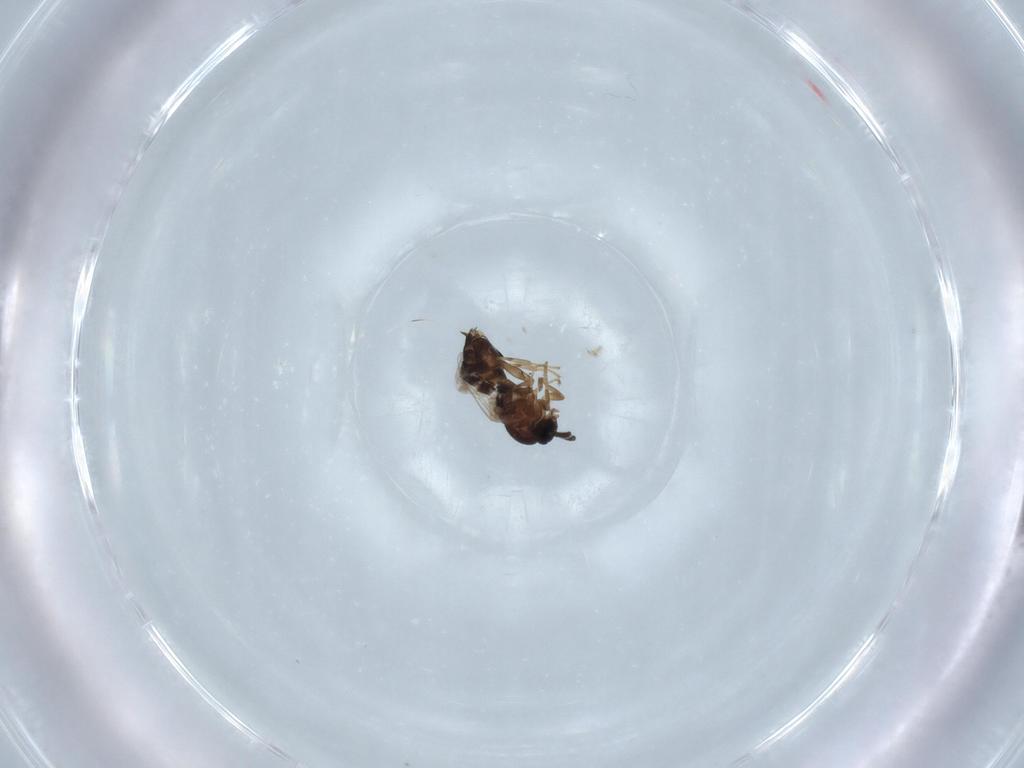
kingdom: Animalia
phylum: Arthropoda
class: Insecta
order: Diptera
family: Scatopsidae
